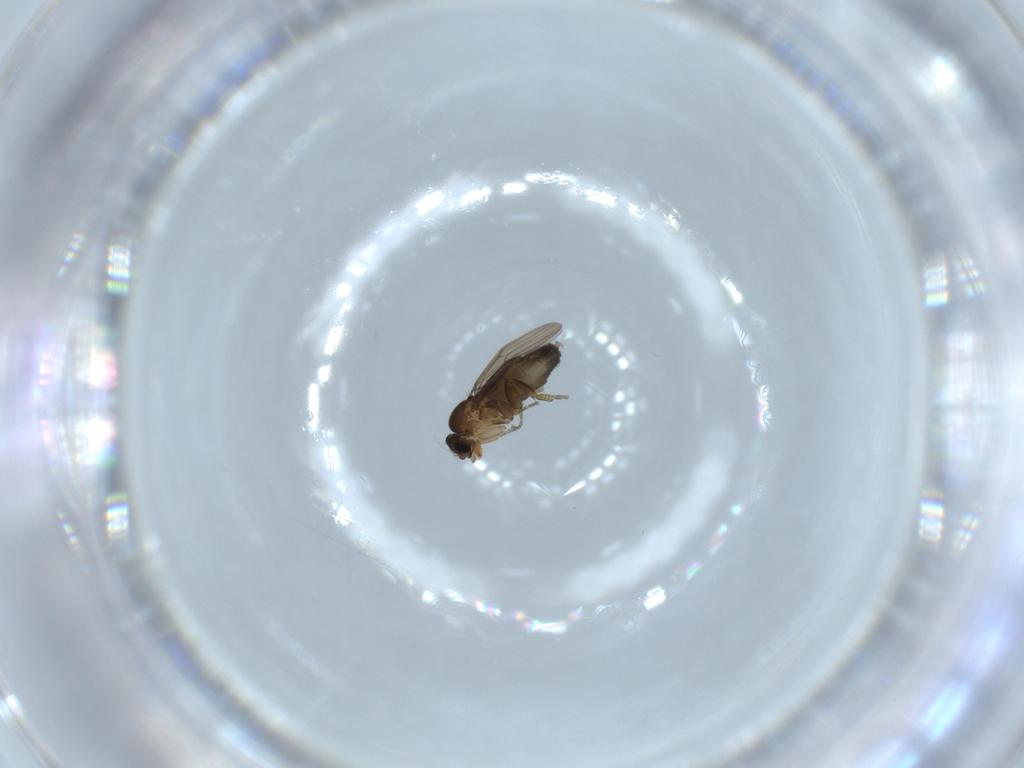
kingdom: Animalia
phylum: Arthropoda
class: Insecta
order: Diptera
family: Phoridae
